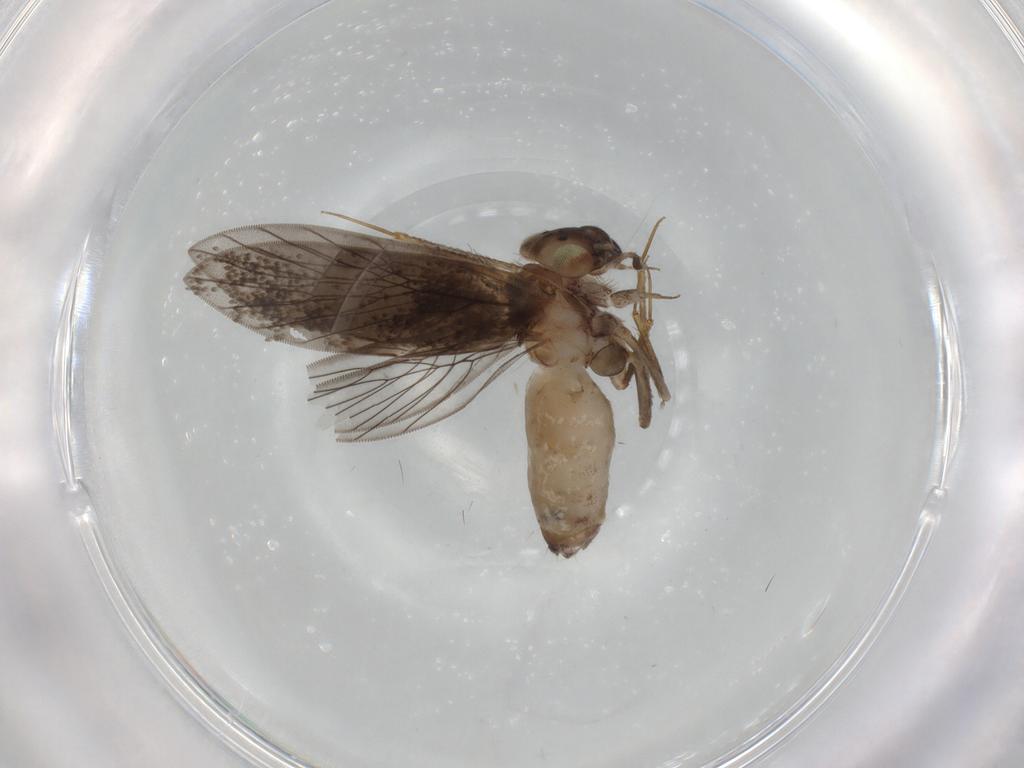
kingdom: Animalia
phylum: Arthropoda
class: Insecta
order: Psocodea
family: Lepidopsocidae
